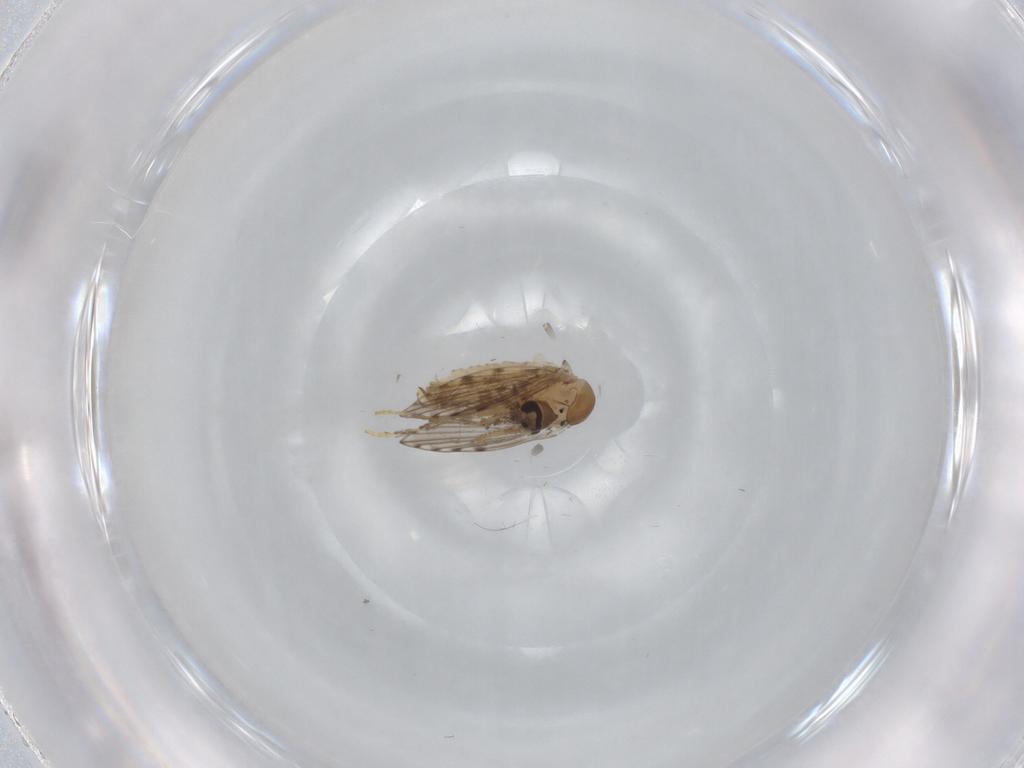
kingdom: Animalia
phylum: Arthropoda
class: Insecta
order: Diptera
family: Psychodidae
